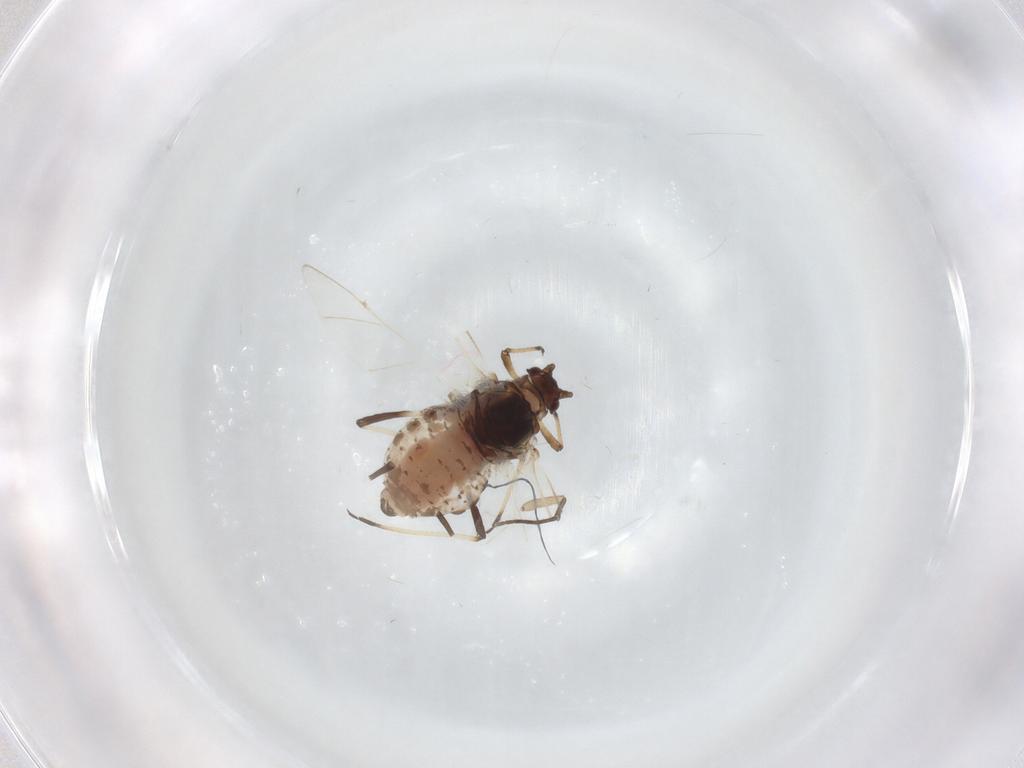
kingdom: Animalia
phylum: Arthropoda
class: Insecta
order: Hemiptera
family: Aphididae
